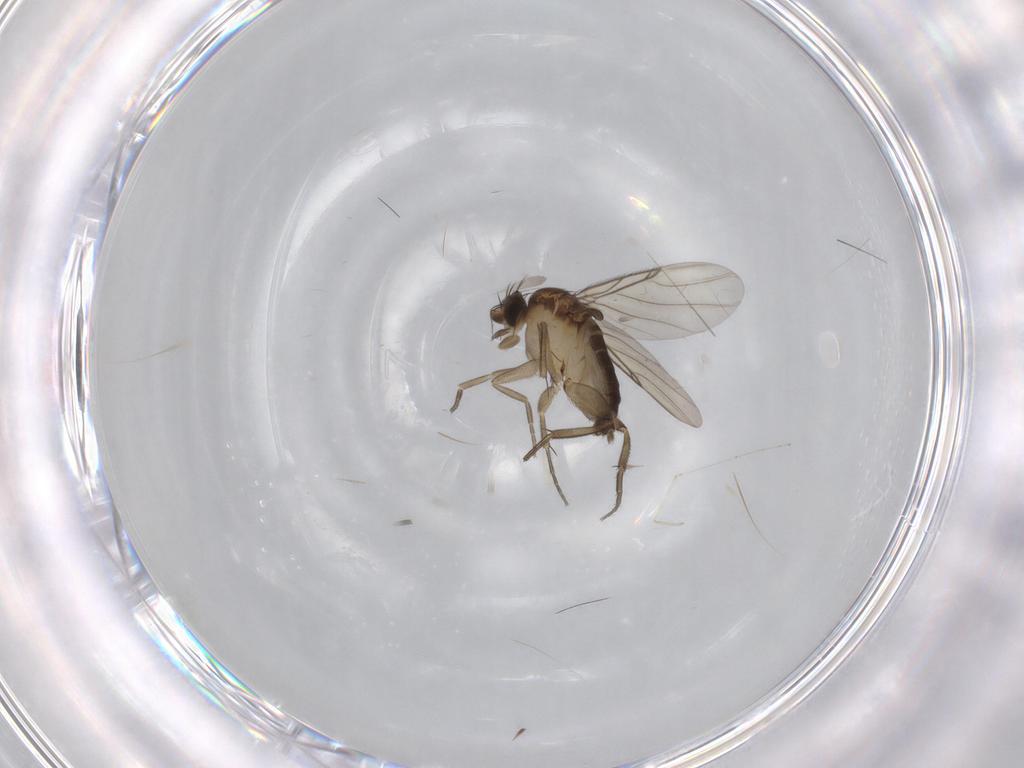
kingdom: Animalia
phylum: Arthropoda
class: Insecta
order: Diptera
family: Phoridae
